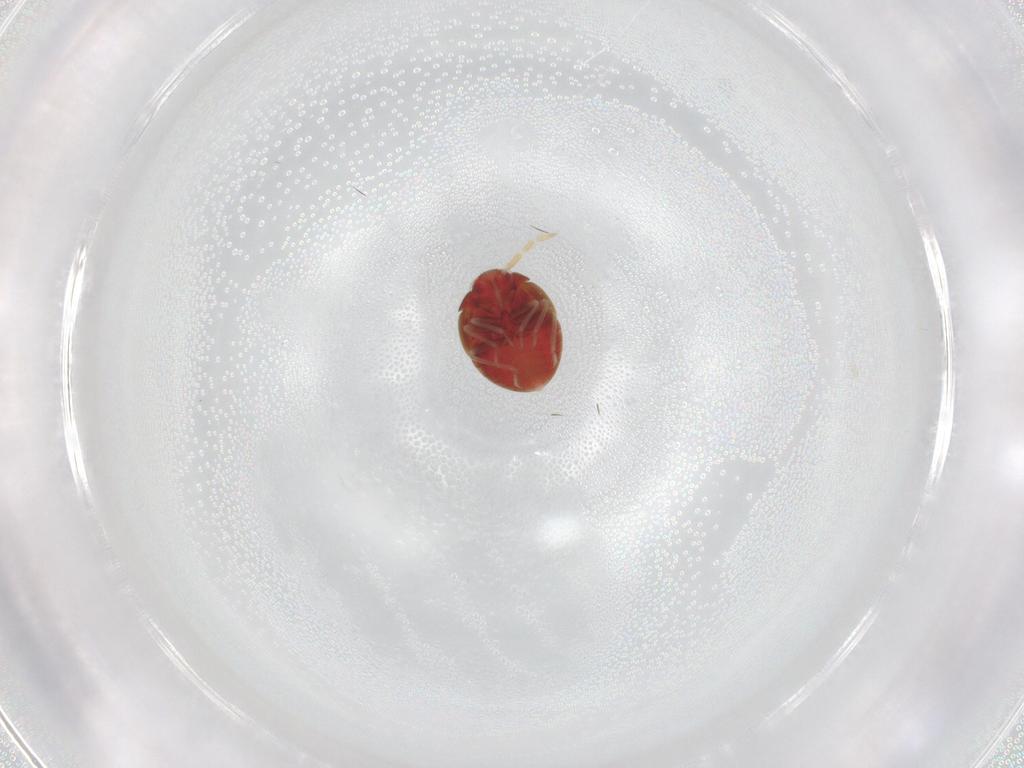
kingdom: Animalia
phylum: Arthropoda
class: Insecta
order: Hemiptera
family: Anthocoridae
